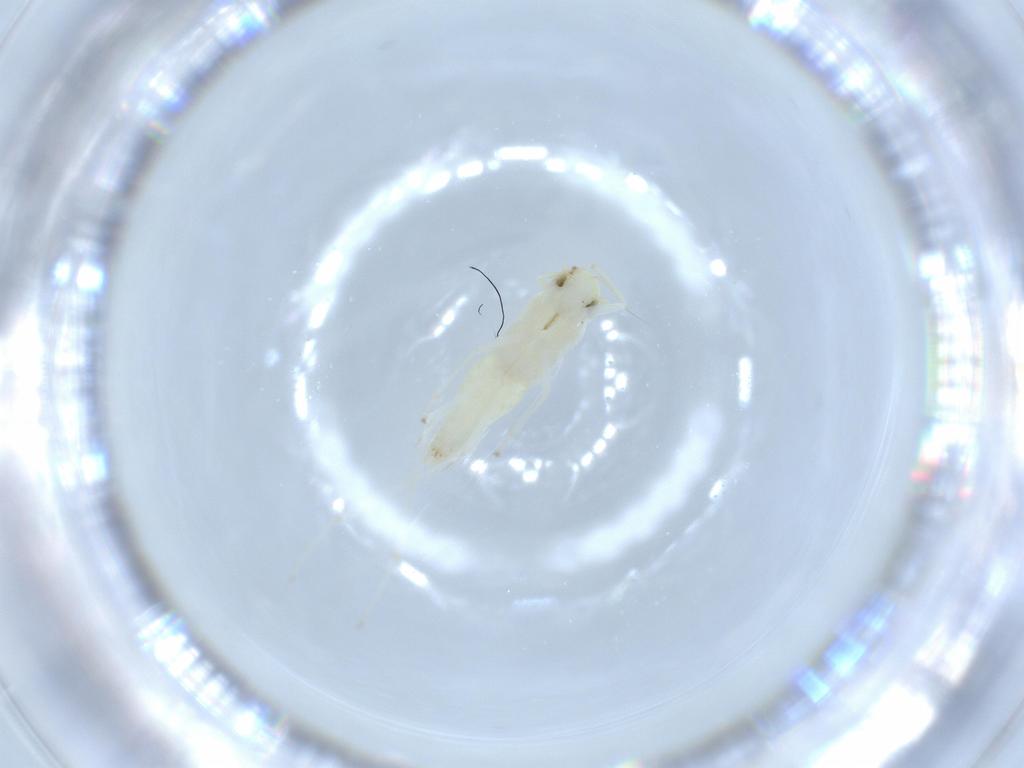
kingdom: Animalia
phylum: Arthropoda
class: Insecta
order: Hemiptera
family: Cicadellidae
